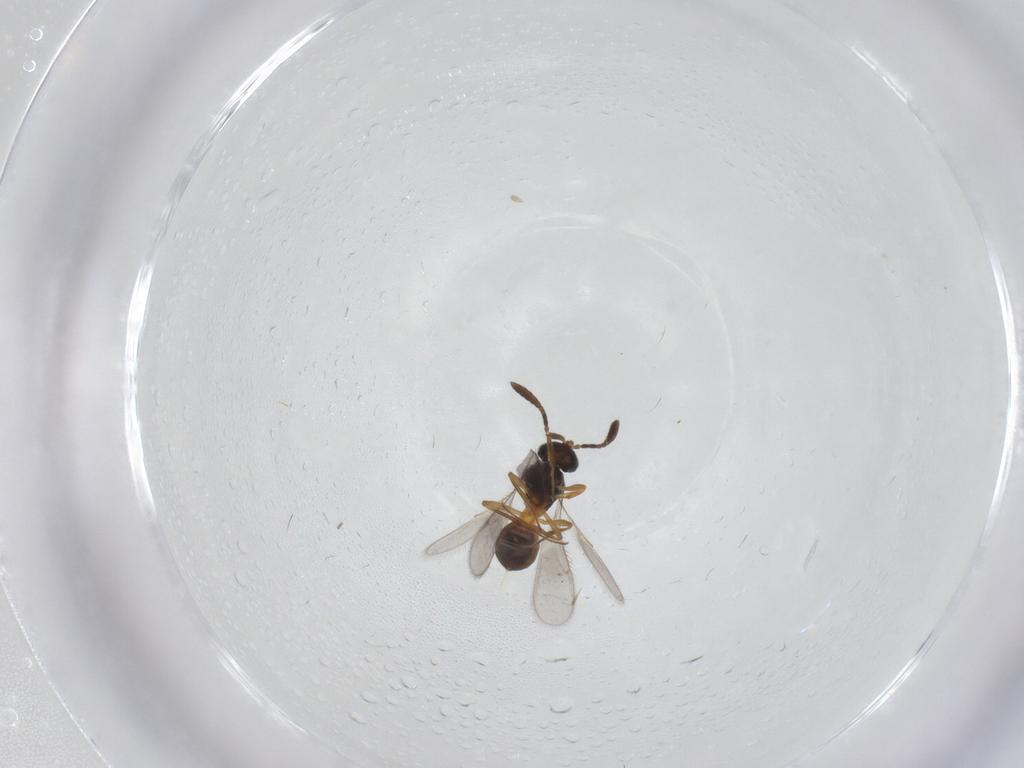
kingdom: Animalia
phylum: Arthropoda
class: Insecta
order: Hymenoptera
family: Scelionidae
